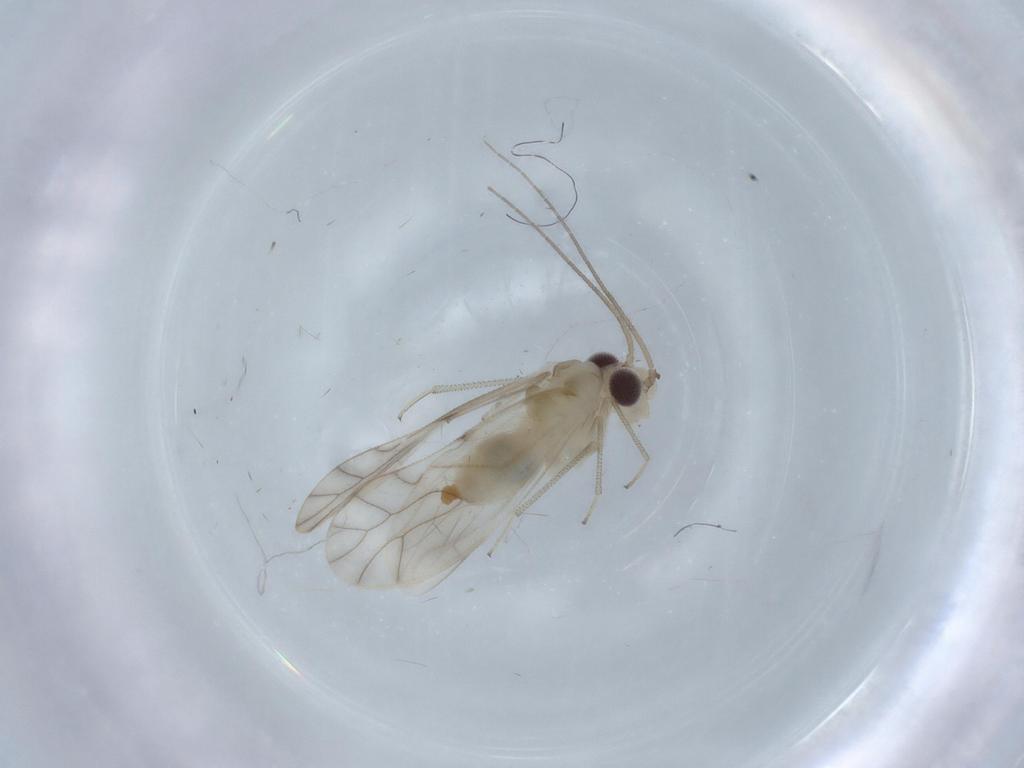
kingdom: Animalia
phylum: Arthropoda
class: Insecta
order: Psocodea
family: Caeciliusidae
